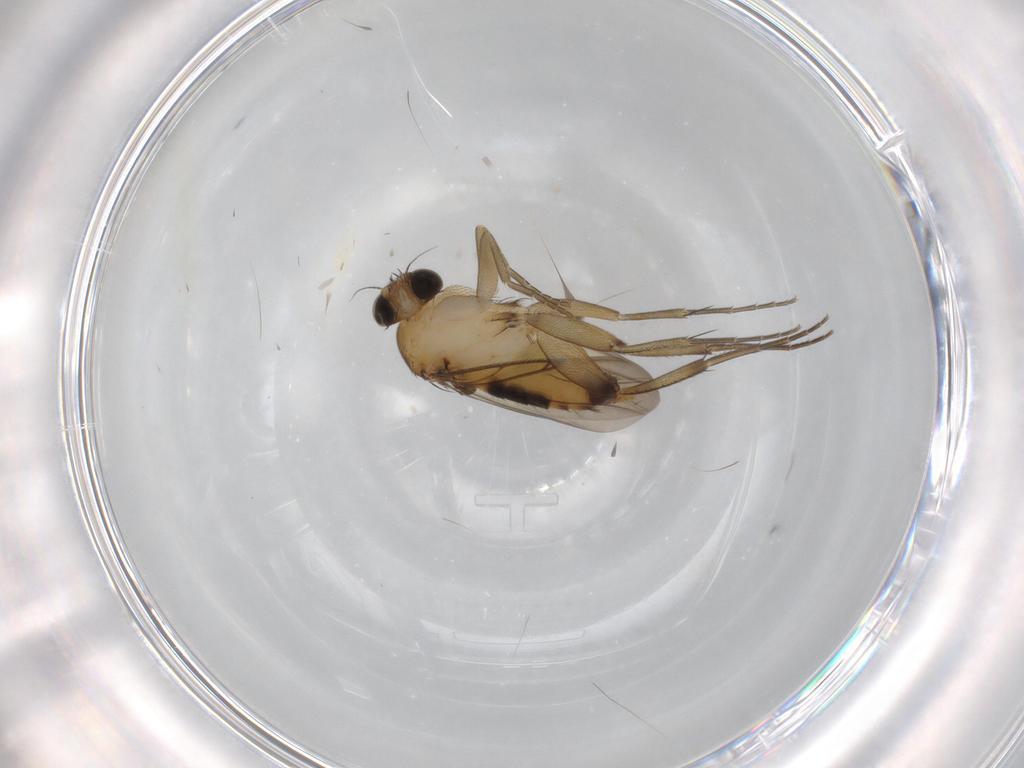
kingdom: Animalia
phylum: Arthropoda
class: Insecta
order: Diptera
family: Phoridae
